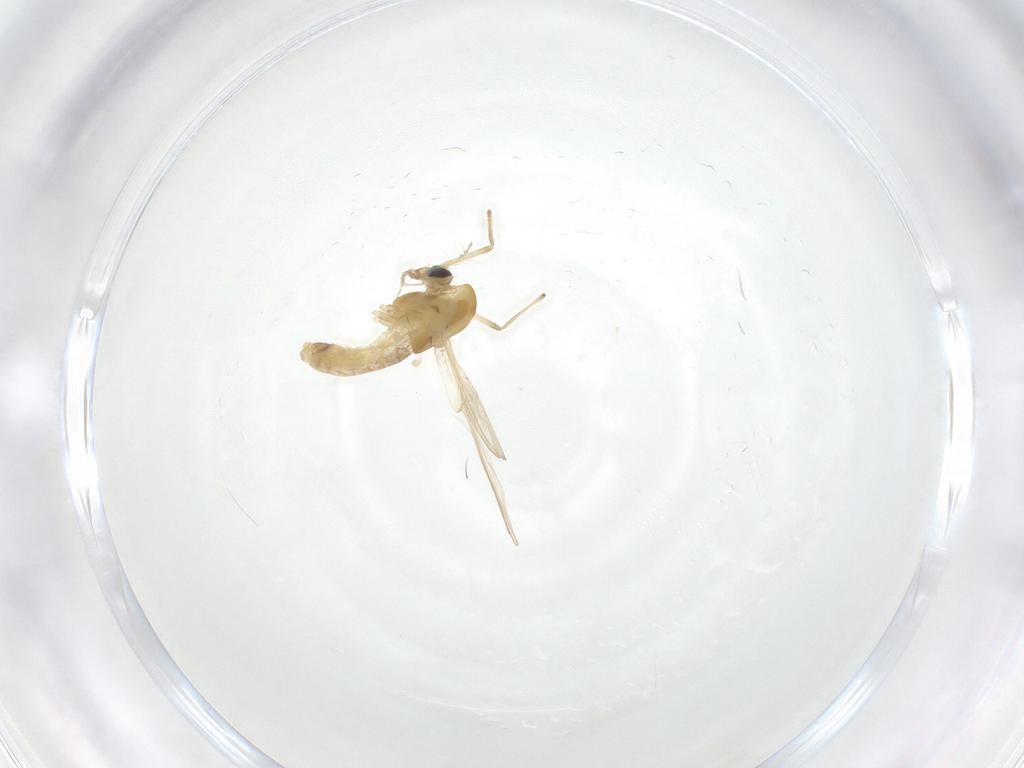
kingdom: Animalia
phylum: Arthropoda
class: Insecta
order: Diptera
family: Chironomidae
